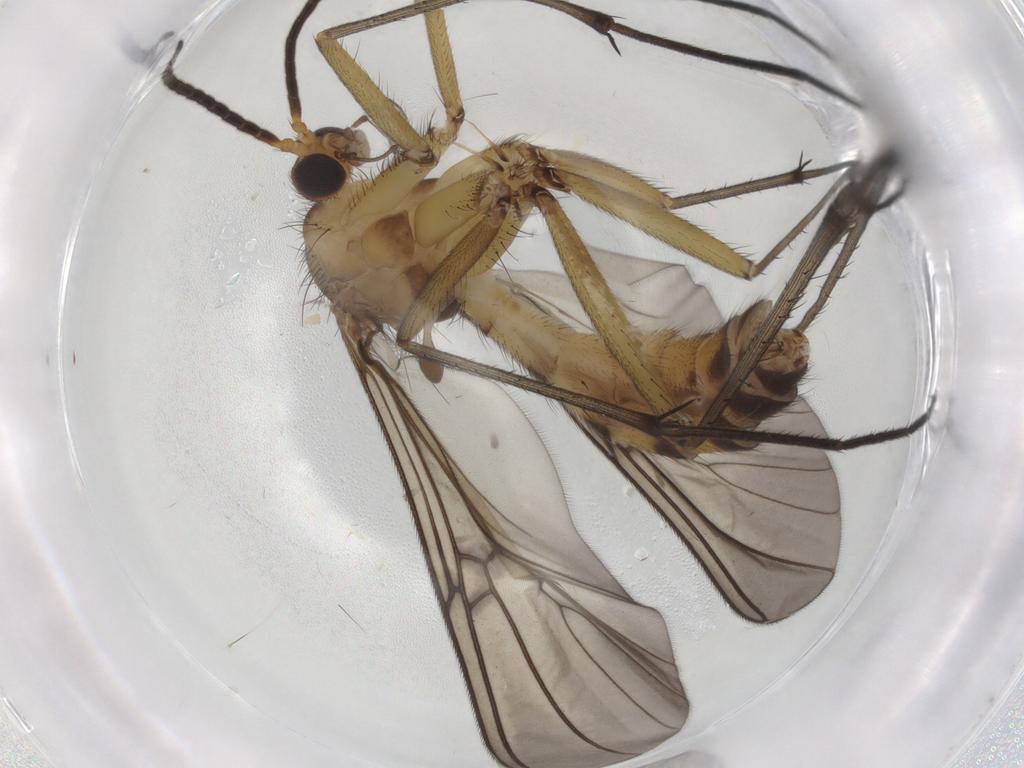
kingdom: Animalia
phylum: Arthropoda
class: Insecta
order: Diptera
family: Mycetophilidae
